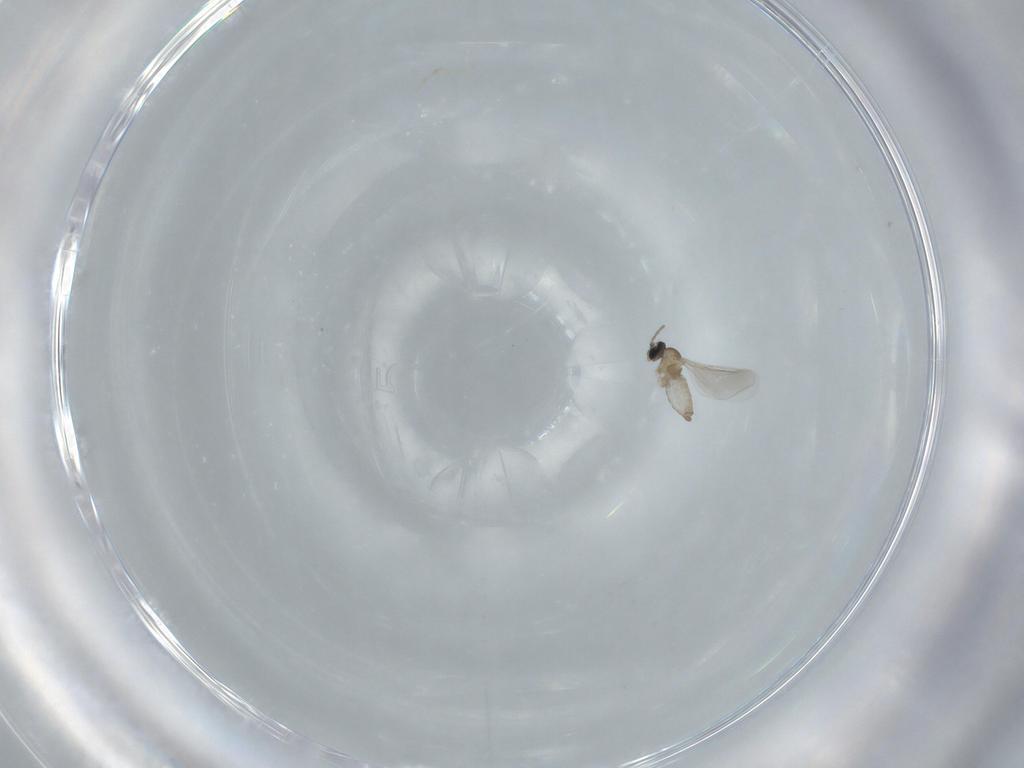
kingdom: Animalia
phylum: Arthropoda
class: Insecta
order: Diptera
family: Cecidomyiidae
